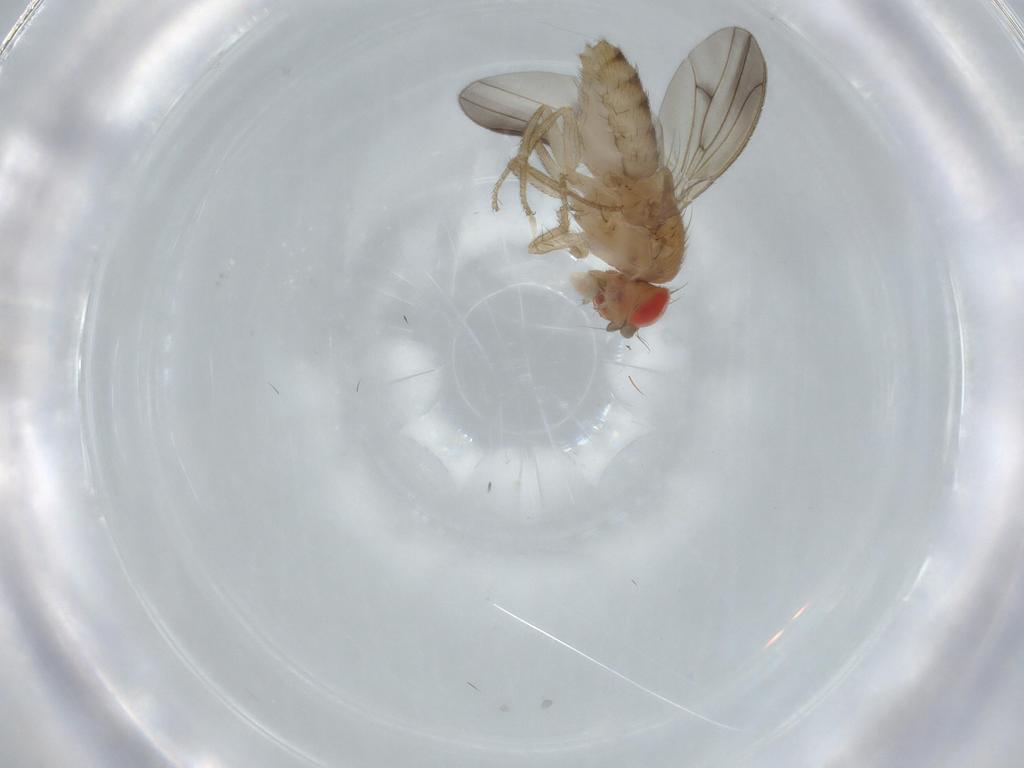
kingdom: Animalia
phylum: Arthropoda
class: Insecta
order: Diptera
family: Drosophilidae
